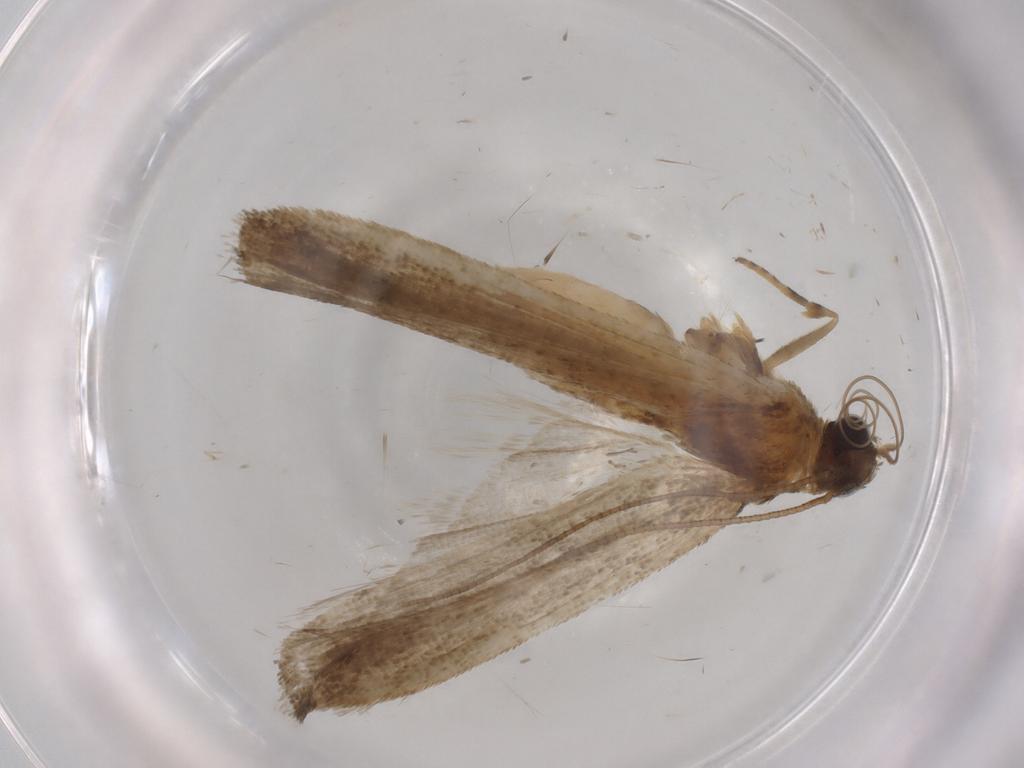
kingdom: Animalia
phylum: Arthropoda
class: Insecta
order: Lepidoptera
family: Noctuidae
